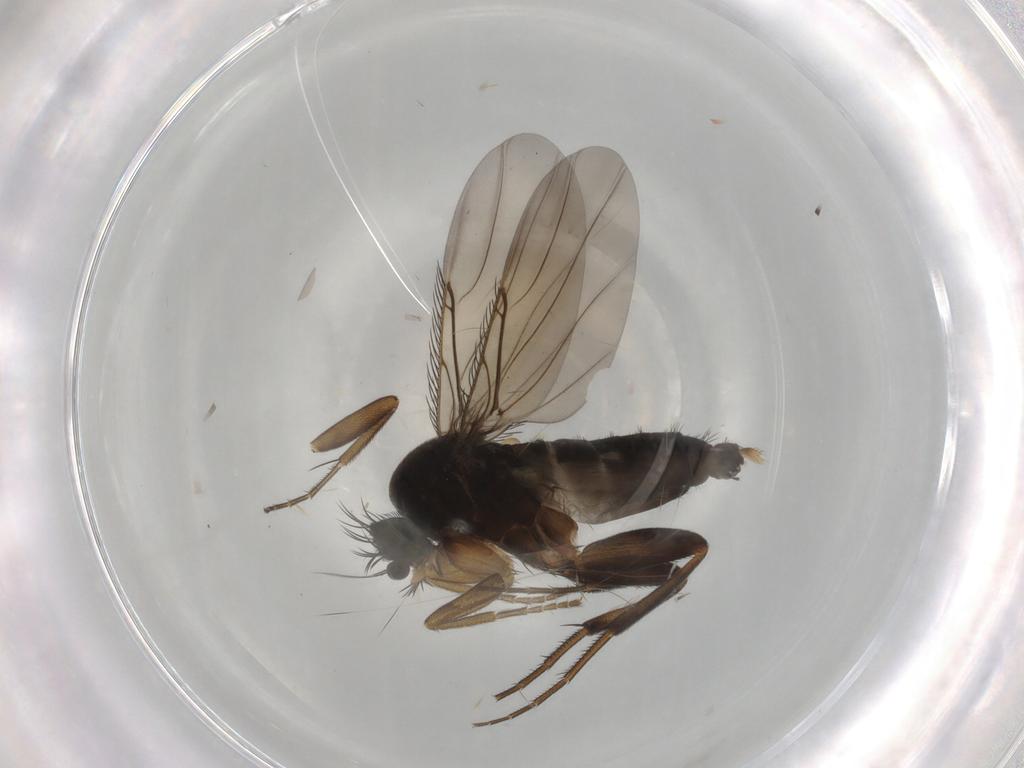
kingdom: Animalia
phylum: Arthropoda
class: Insecta
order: Diptera
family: Phoridae
